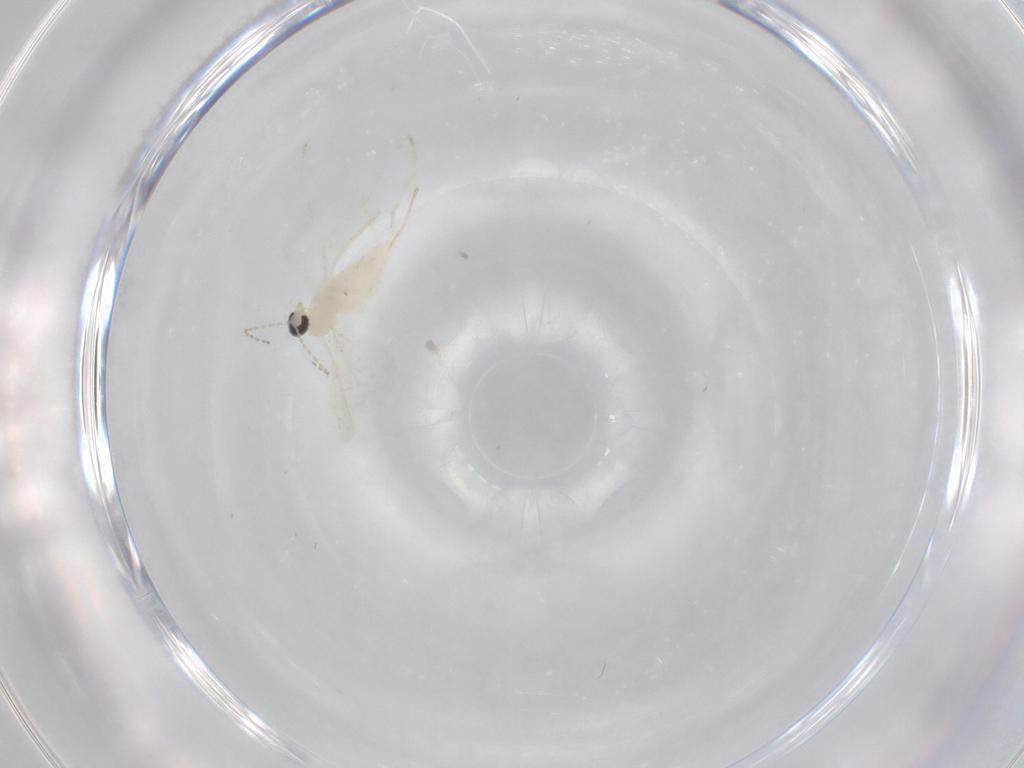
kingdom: Animalia
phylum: Arthropoda
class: Insecta
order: Diptera
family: Cecidomyiidae
